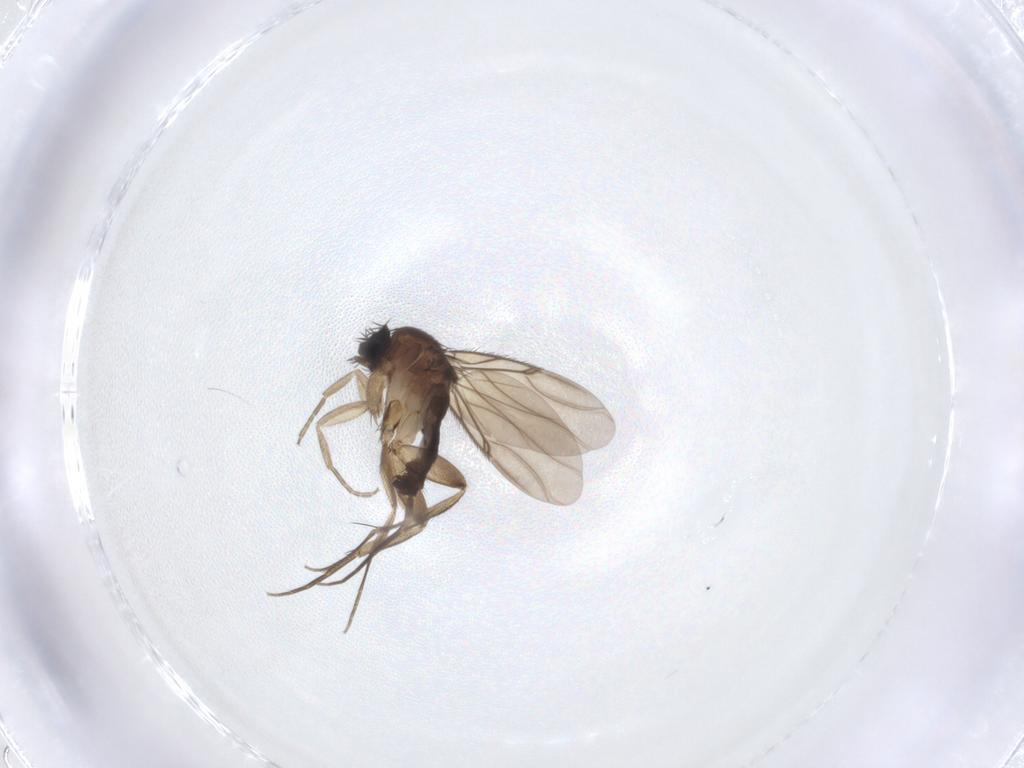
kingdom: Animalia
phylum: Arthropoda
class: Insecta
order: Diptera
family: Phoridae
